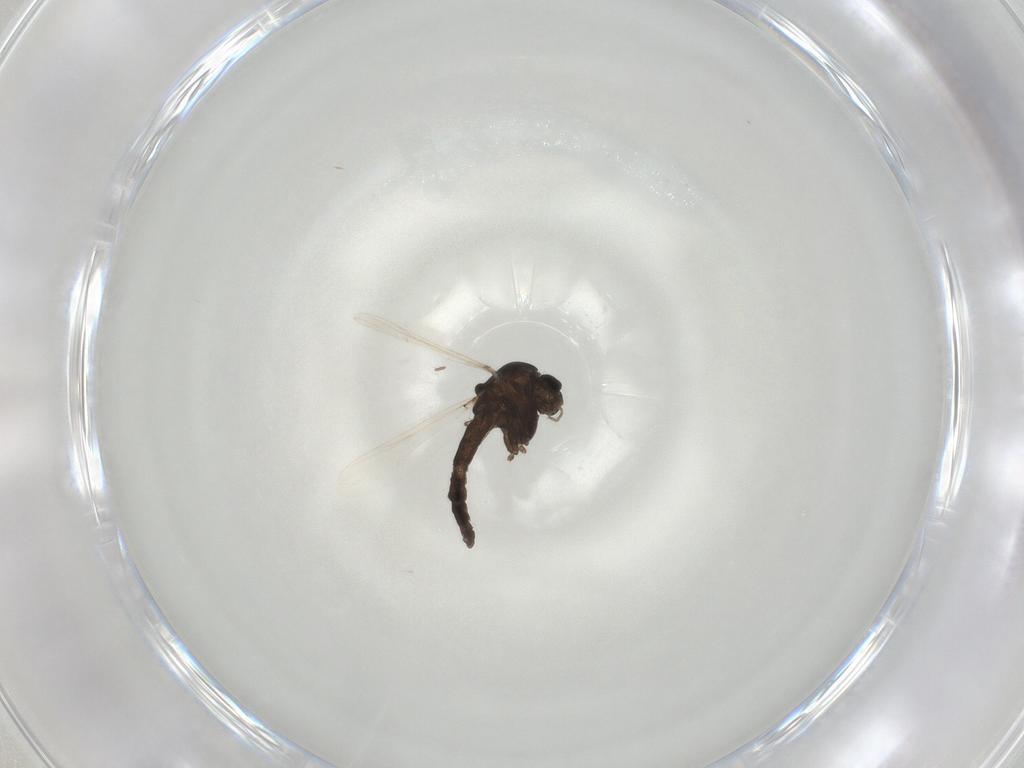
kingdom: Animalia
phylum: Arthropoda
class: Insecta
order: Diptera
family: Chironomidae
